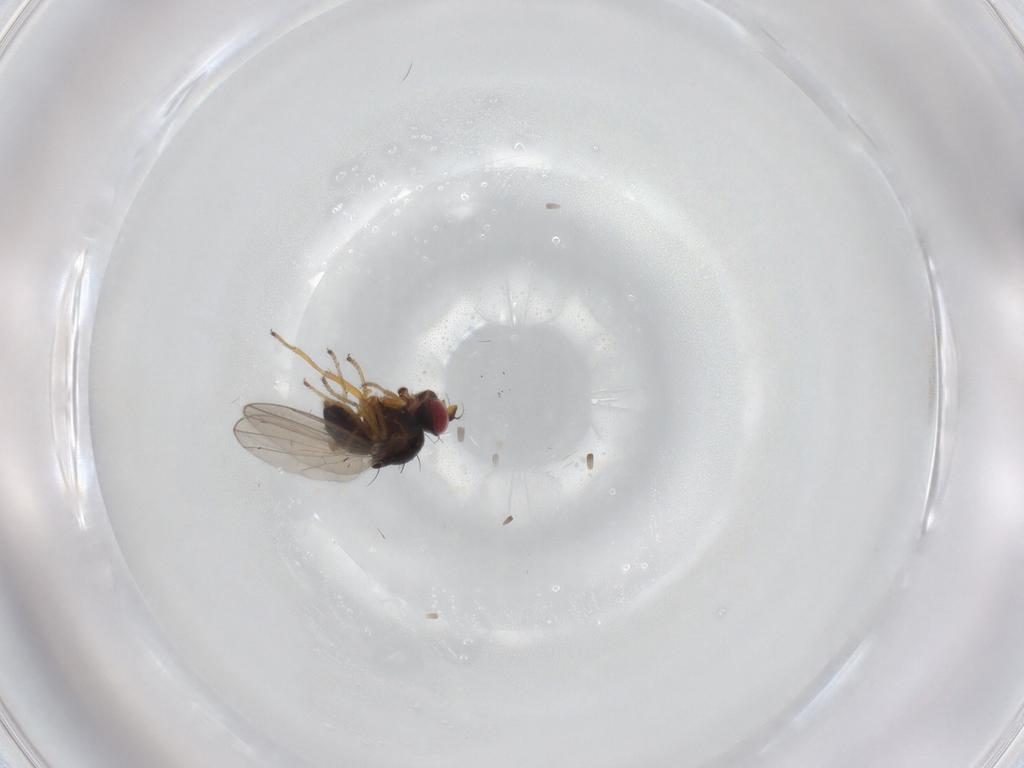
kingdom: Animalia
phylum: Arthropoda
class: Insecta
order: Diptera
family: Ephydridae
